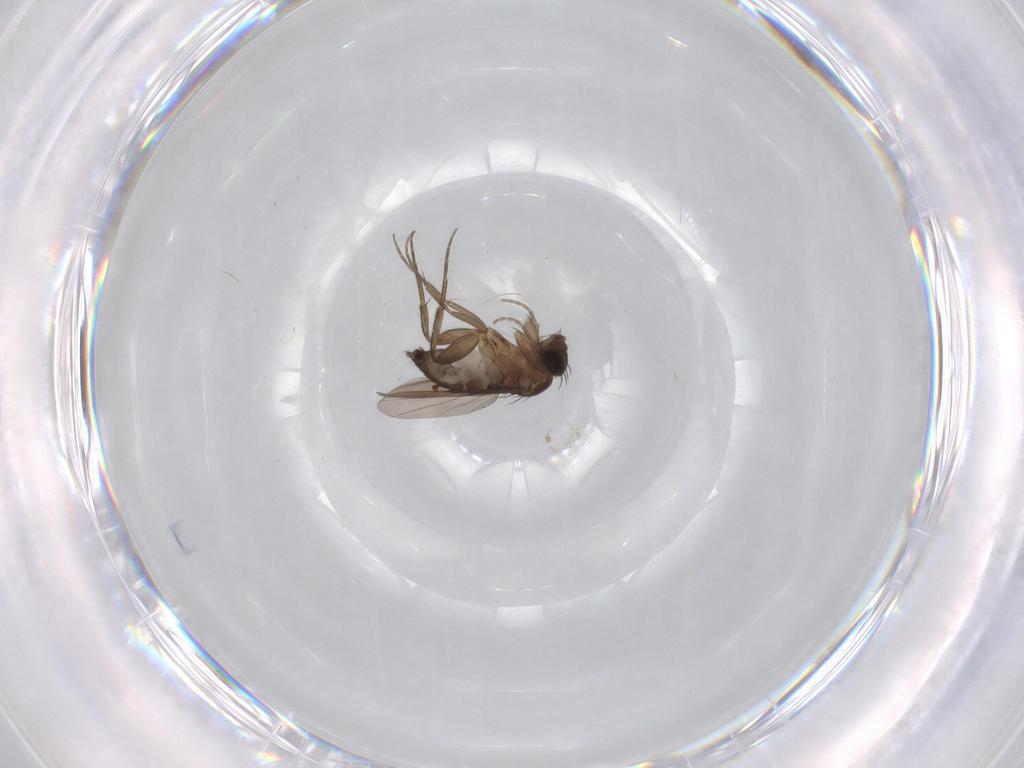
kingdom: Animalia
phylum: Arthropoda
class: Insecta
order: Diptera
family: Phoridae
